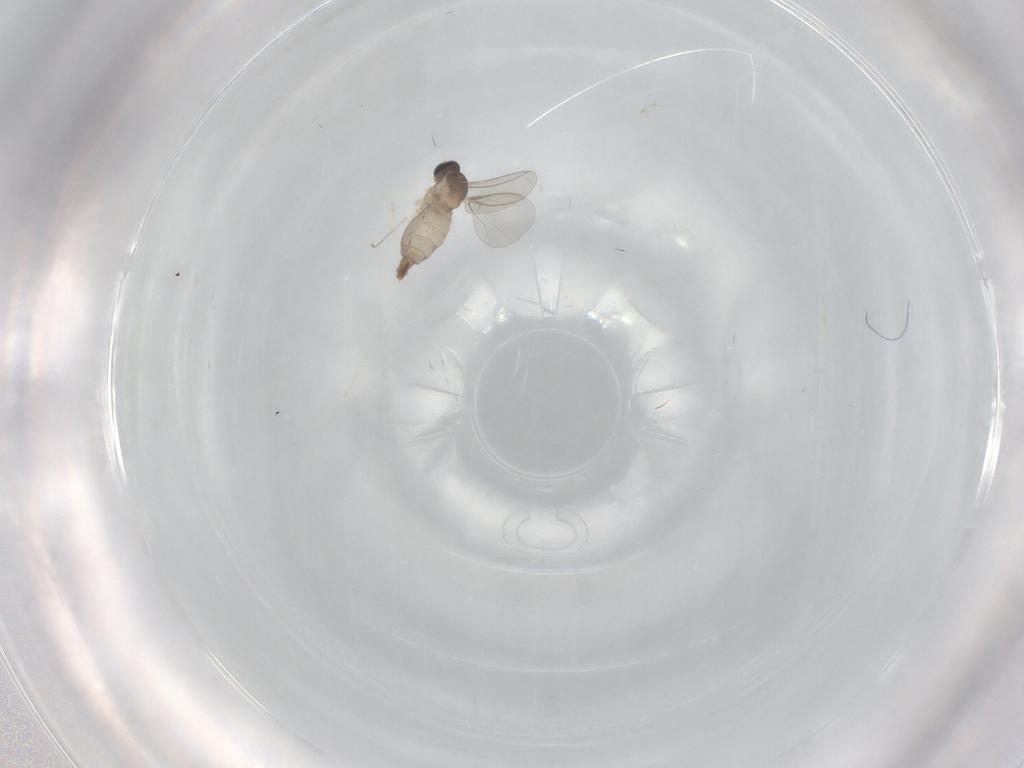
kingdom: Animalia
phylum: Arthropoda
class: Insecta
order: Diptera
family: Cecidomyiidae
